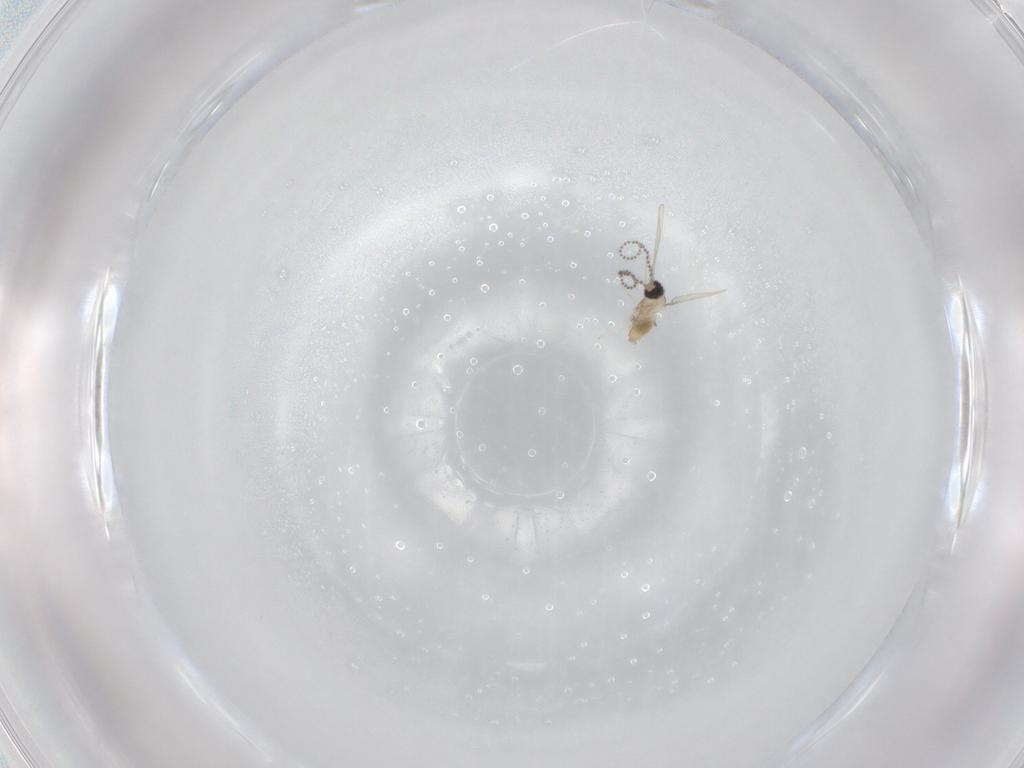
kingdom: Animalia
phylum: Arthropoda
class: Insecta
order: Diptera
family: Cecidomyiidae
